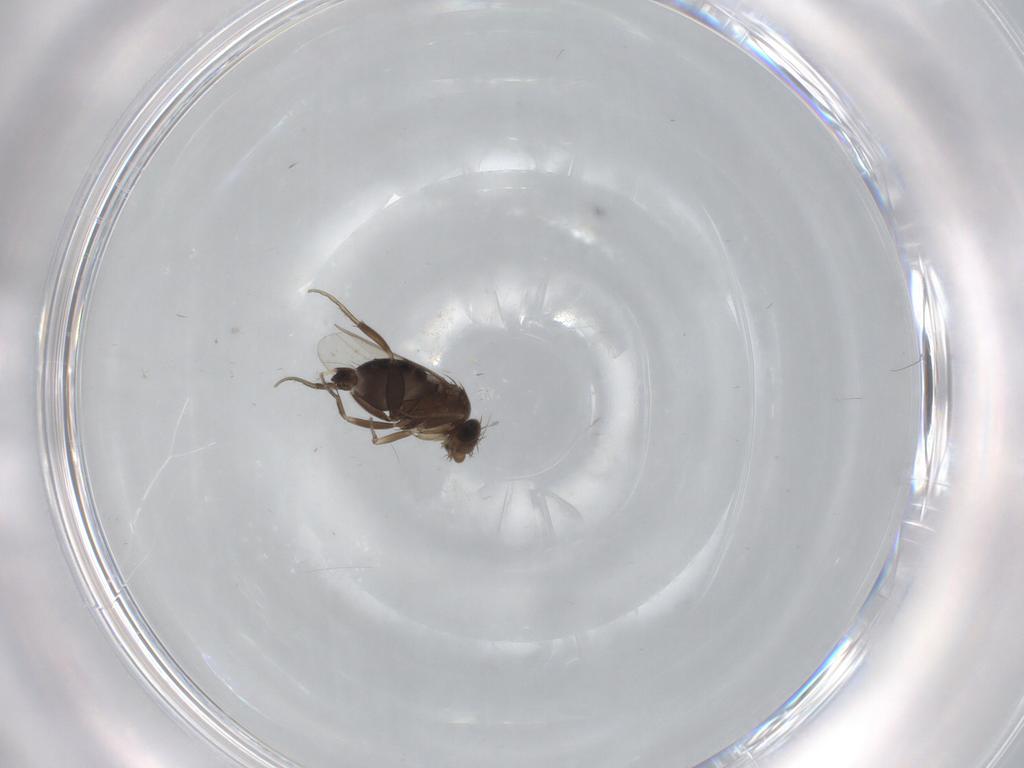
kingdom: Animalia
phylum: Arthropoda
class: Insecta
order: Diptera
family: Phoridae
